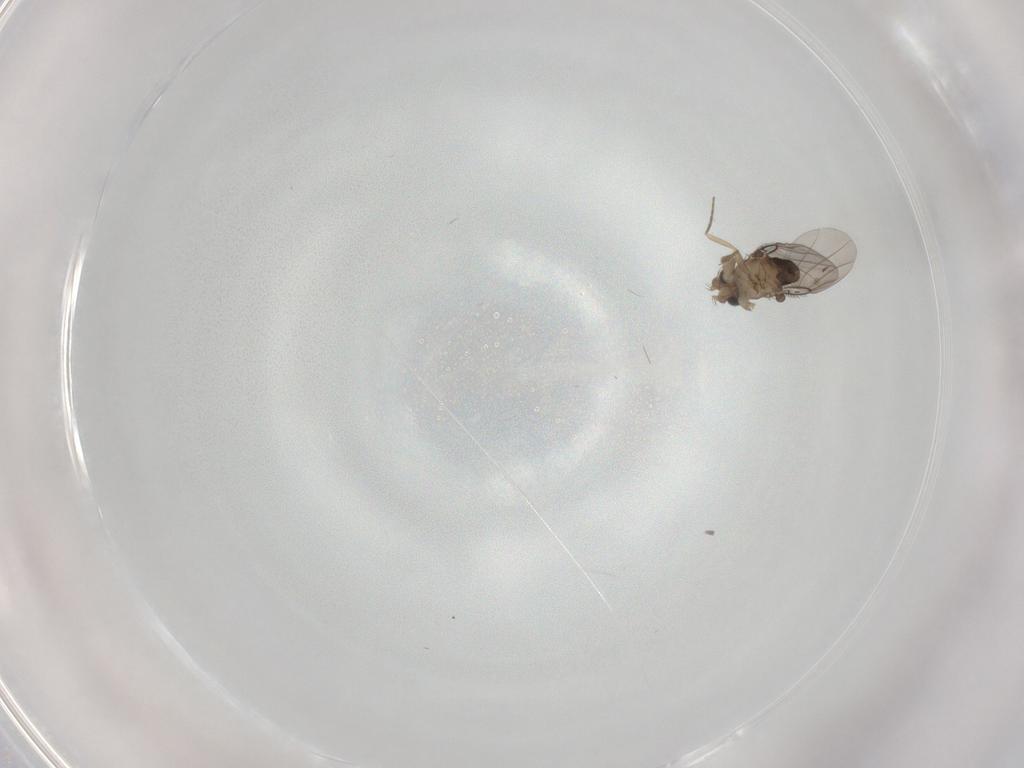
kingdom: Animalia
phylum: Arthropoda
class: Insecta
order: Diptera
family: Phoridae
